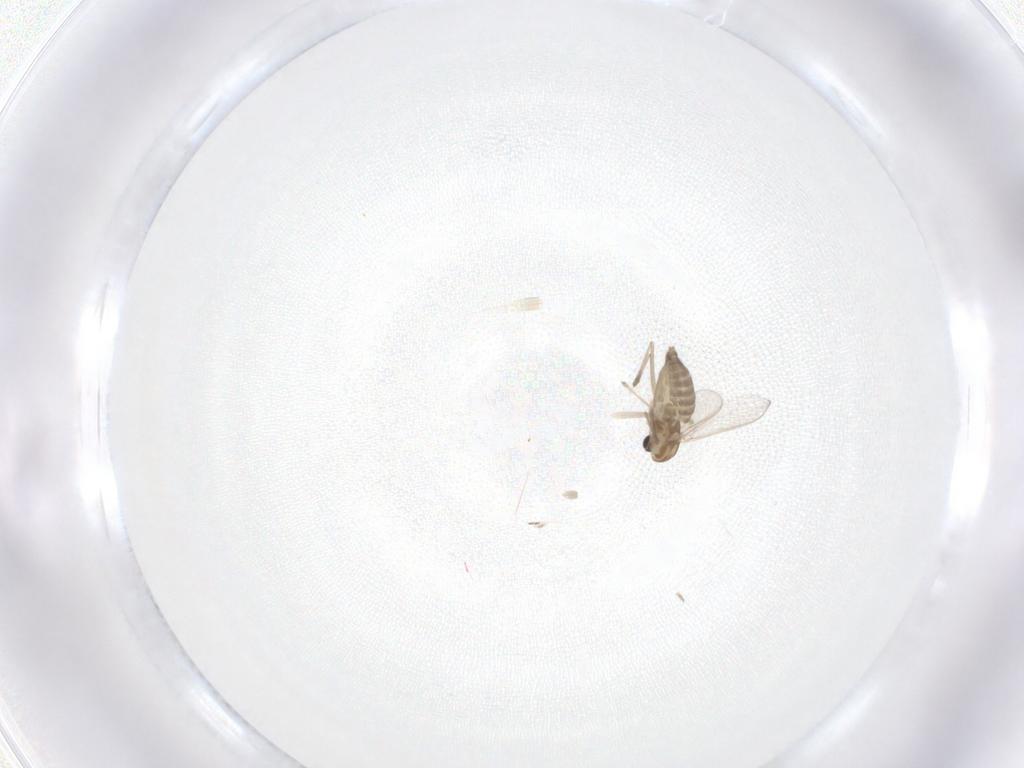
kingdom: Animalia
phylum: Arthropoda
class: Insecta
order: Diptera
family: Chironomidae
